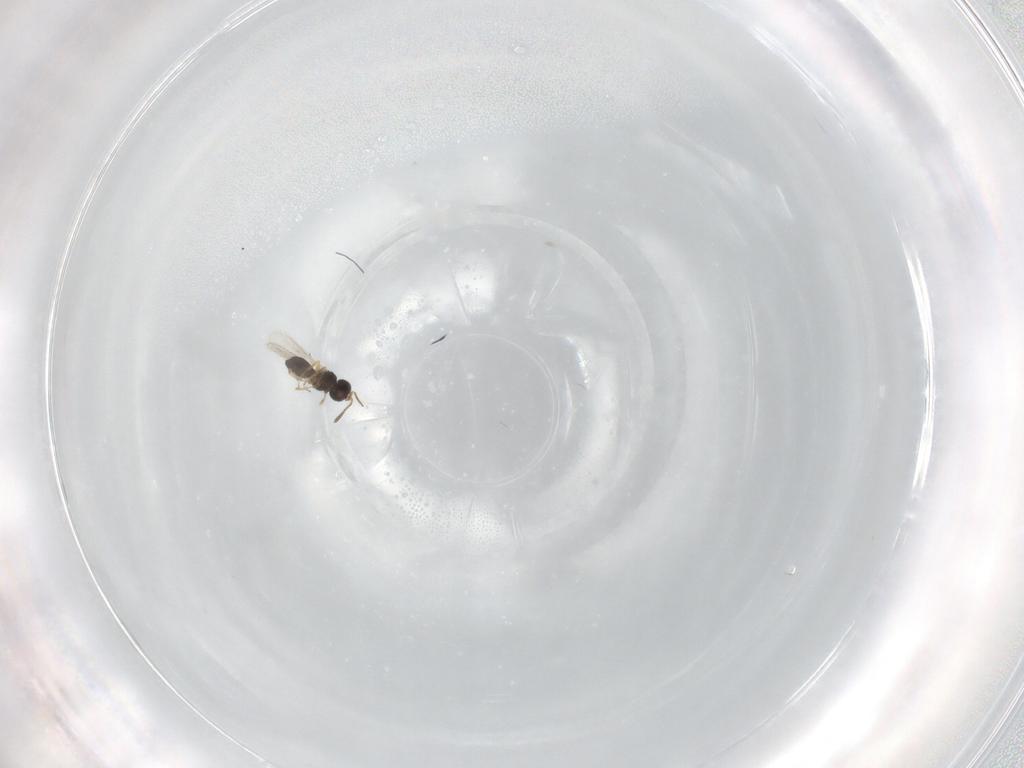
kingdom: Animalia
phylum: Arthropoda
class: Insecta
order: Hymenoptera
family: Scelionidae
